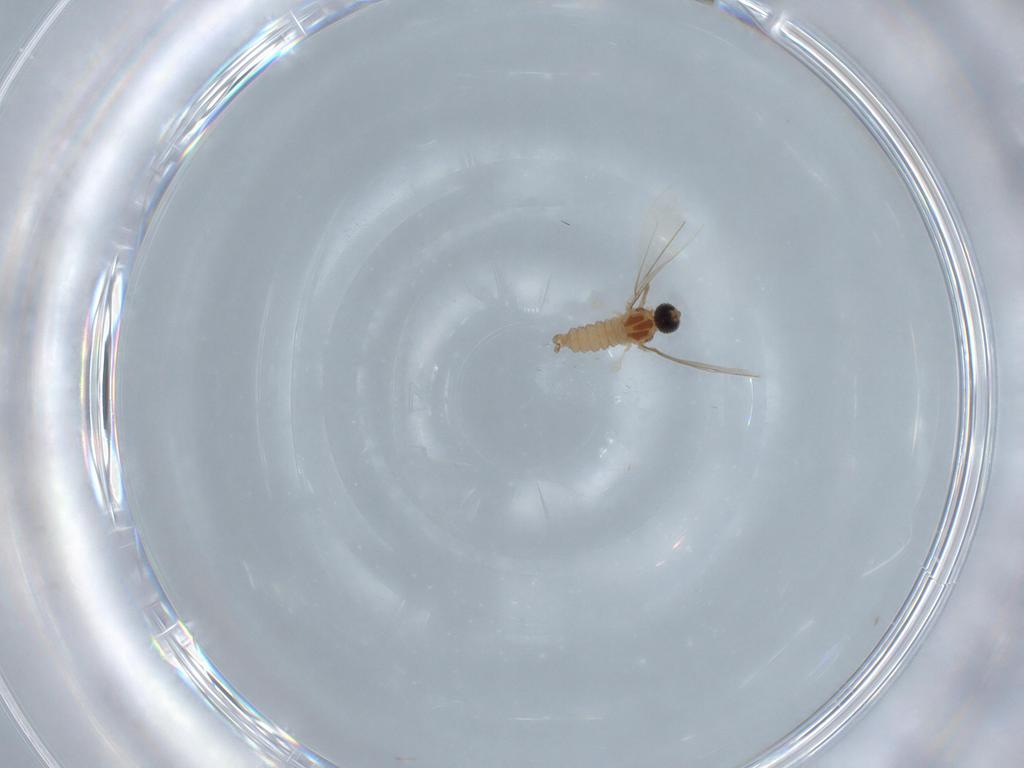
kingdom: Animalia
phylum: Arthropoda
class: Insecta
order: Diptera
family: Cecidomyiidae
